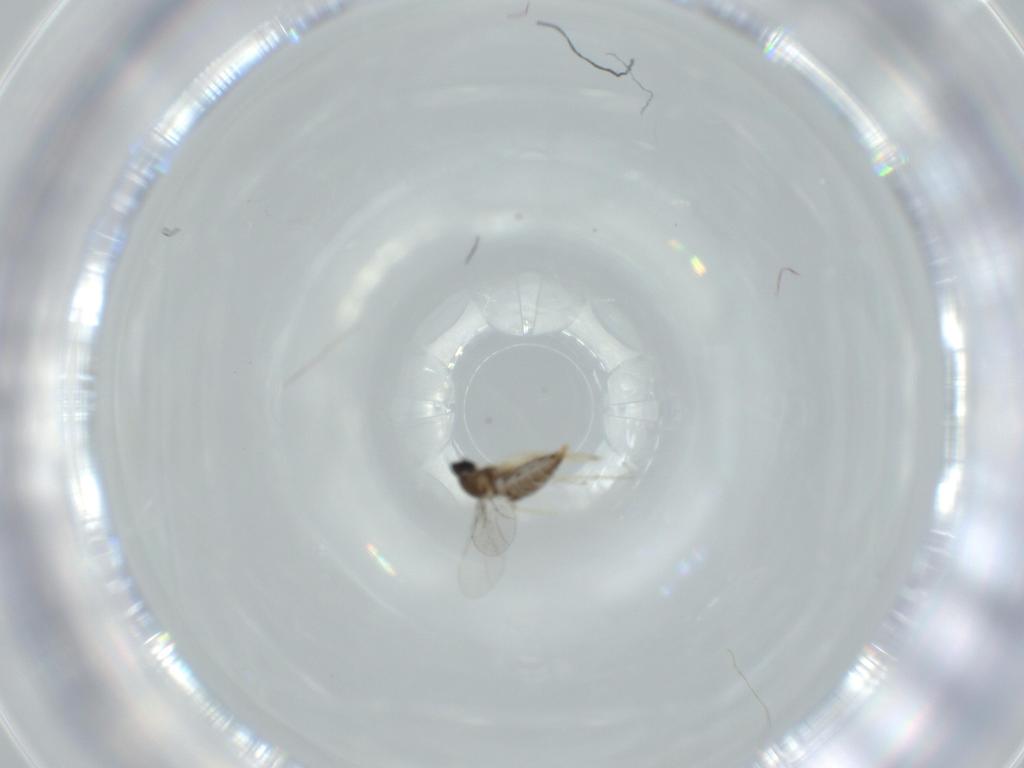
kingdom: Animalia
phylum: Arthropoda
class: Insecta
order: Diptera
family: Cecidomyiidae
